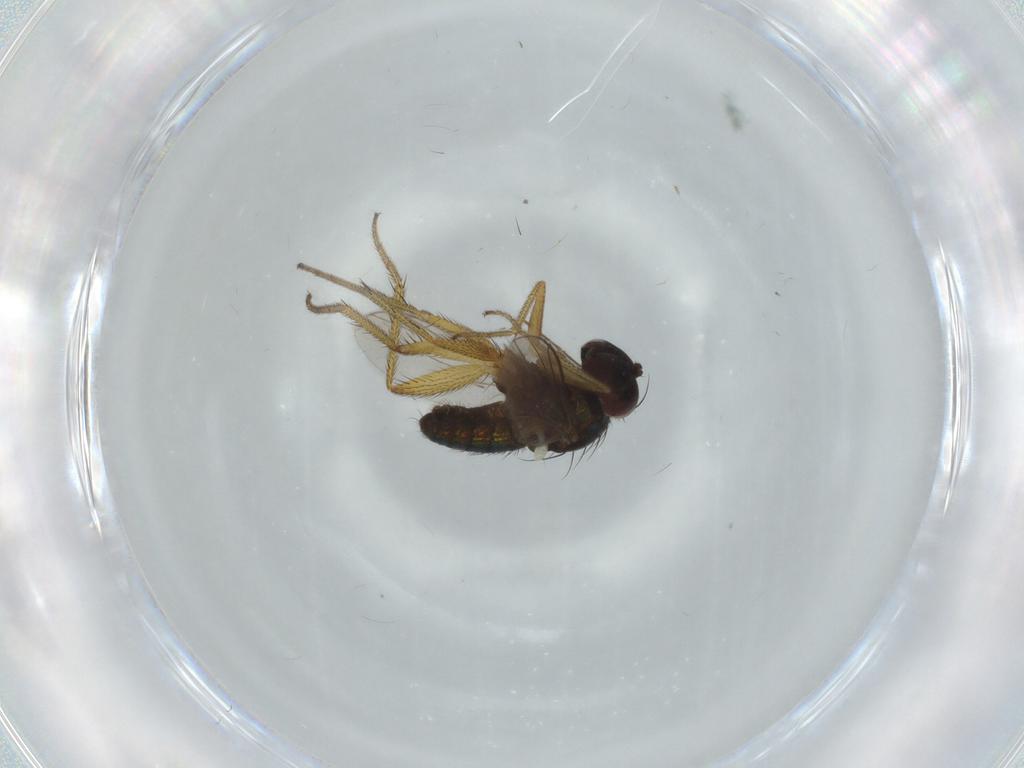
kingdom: Animalia
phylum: Arthropoda
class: Insecta
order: Diptera
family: Dolichopodidae
